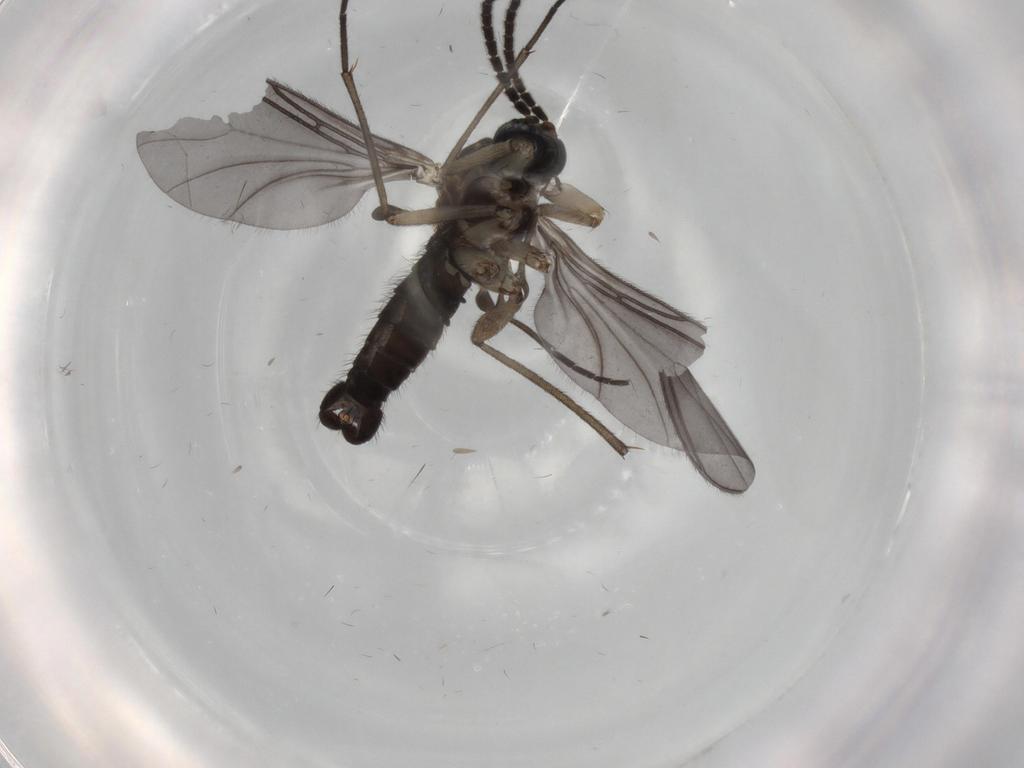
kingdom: Animalia
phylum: Arthropoda
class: Insecta
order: Diptera
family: Sciaridae
